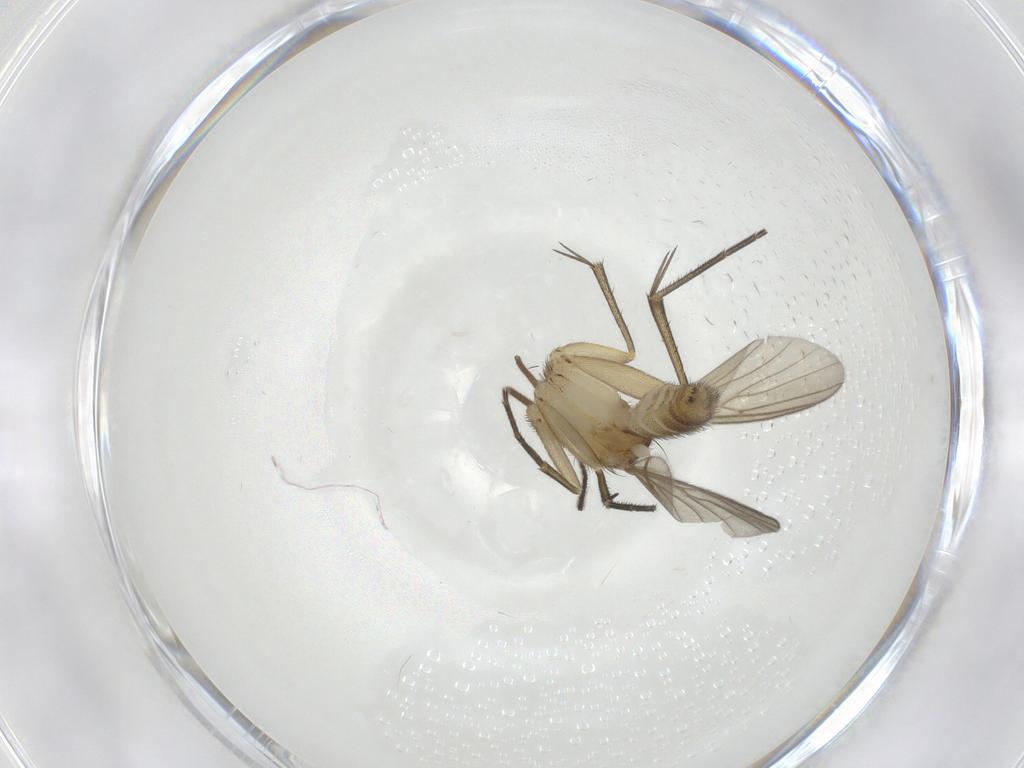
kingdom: Animalia
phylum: Arthropoda
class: Insecta
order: Diptera
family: Cecidomyiidae
